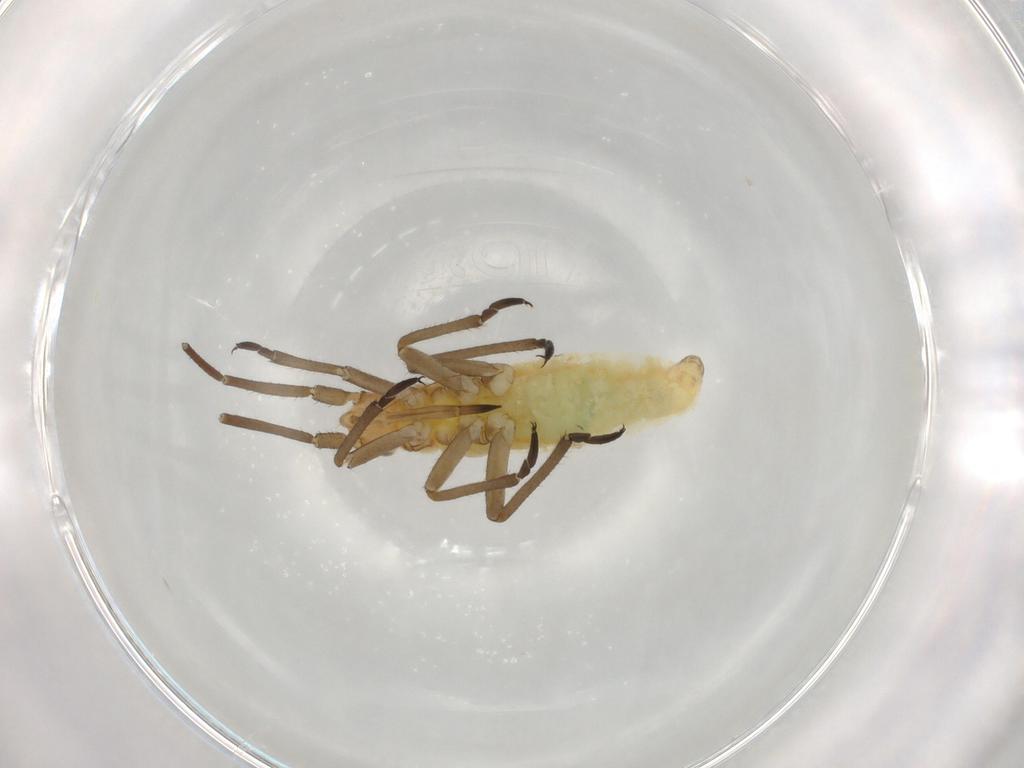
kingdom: Animalia
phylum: Arthropoda
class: Insecta
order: Hemiptera
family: Miridae
